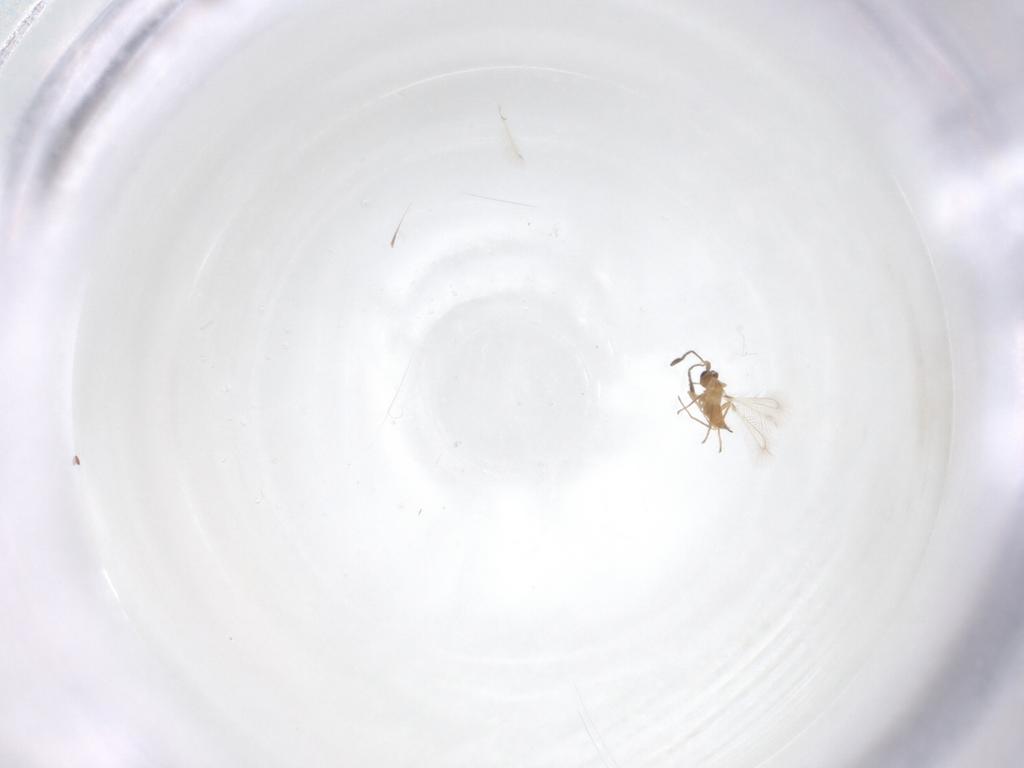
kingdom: Animalia
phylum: Arthropoda
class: Insecta
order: Hymenoptera
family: Mymaridae
